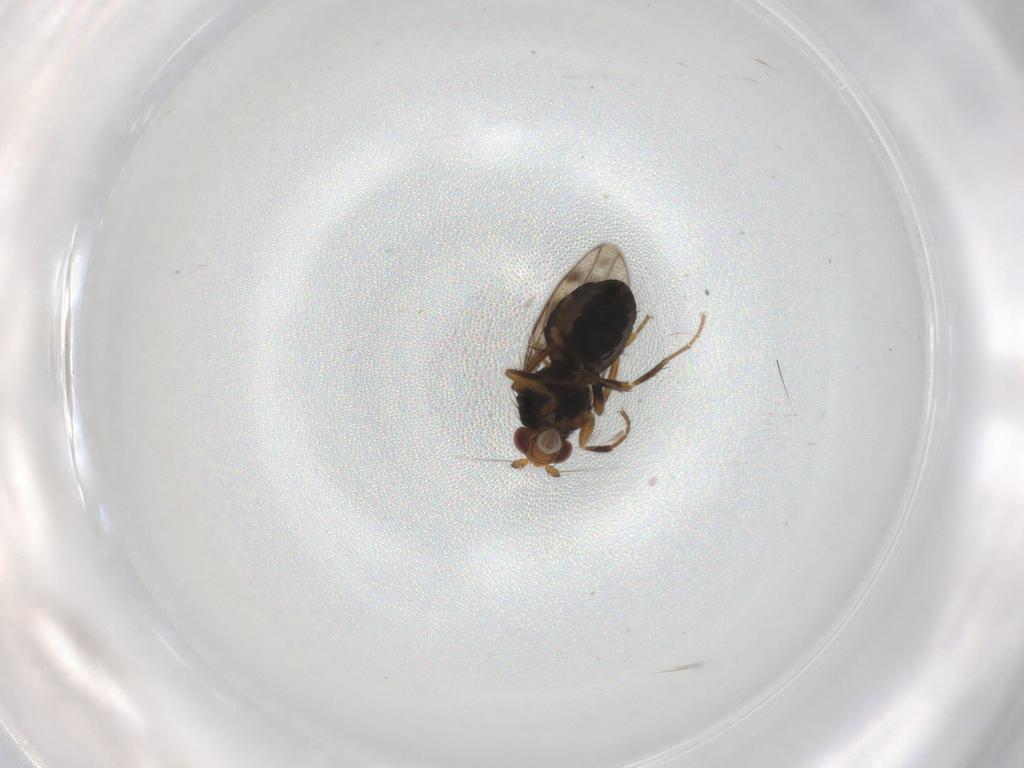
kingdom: Animalia
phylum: Arthropoda
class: Insecta
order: Diptera
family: Sphaeroceridae
